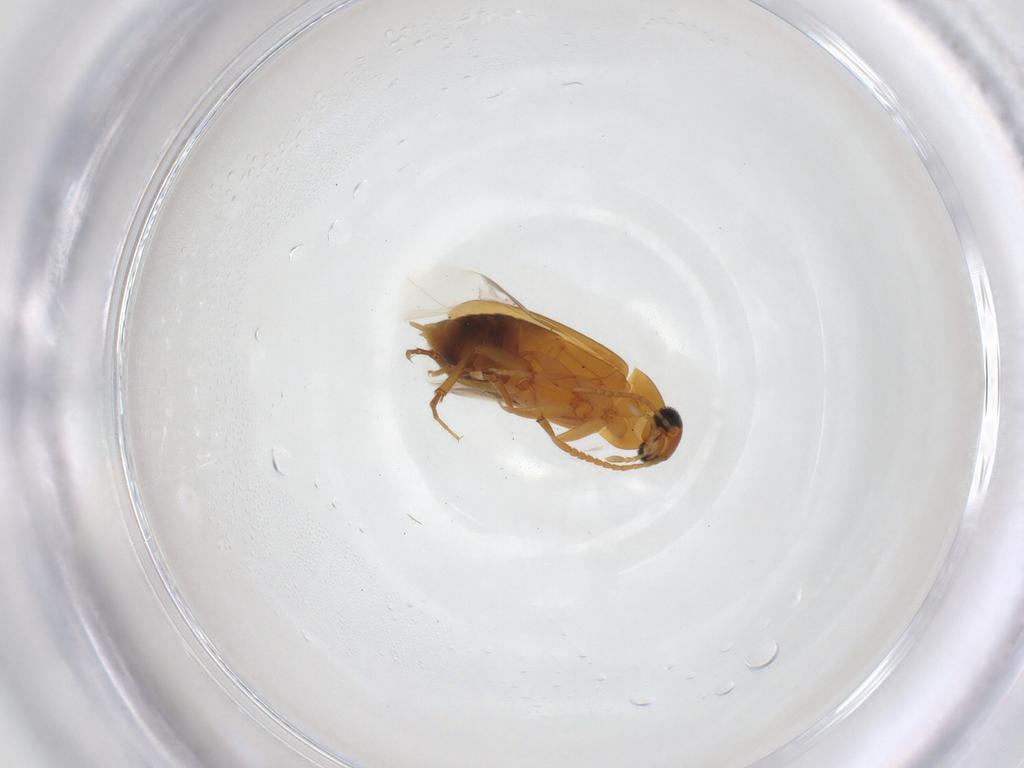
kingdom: Animalia
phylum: Arthropoda
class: Insecta
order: Coleoptera
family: Scraptiidae
